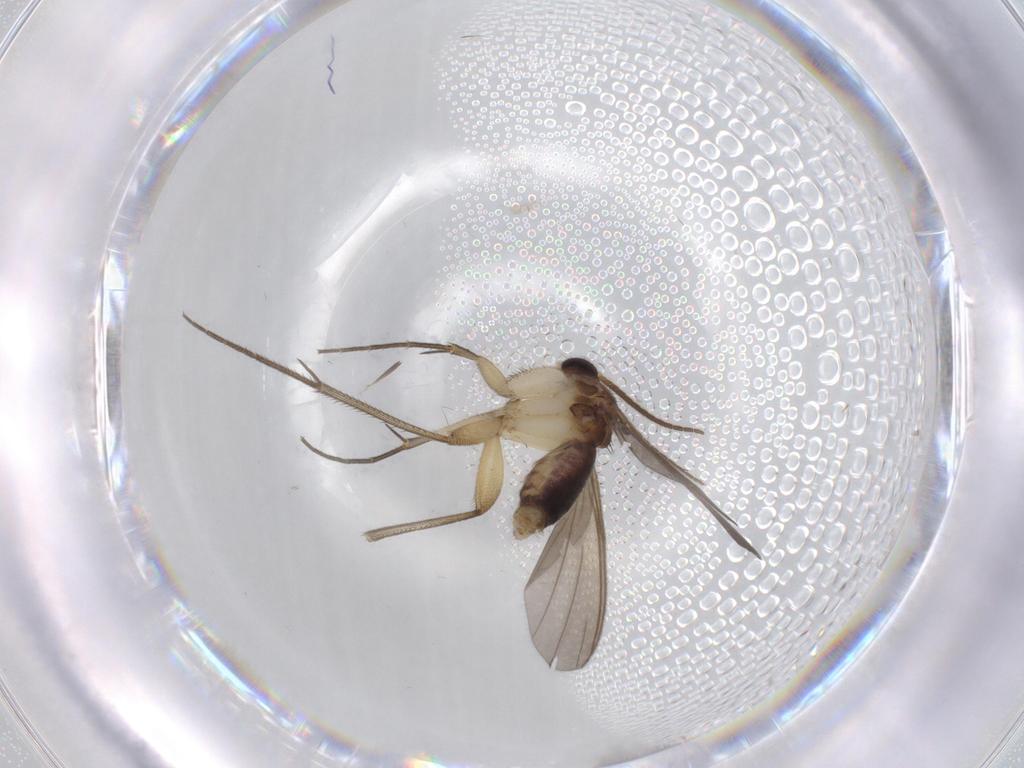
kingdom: Animalia
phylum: Arthropoda
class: Insecta
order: Diptera
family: Mycetophilidae
